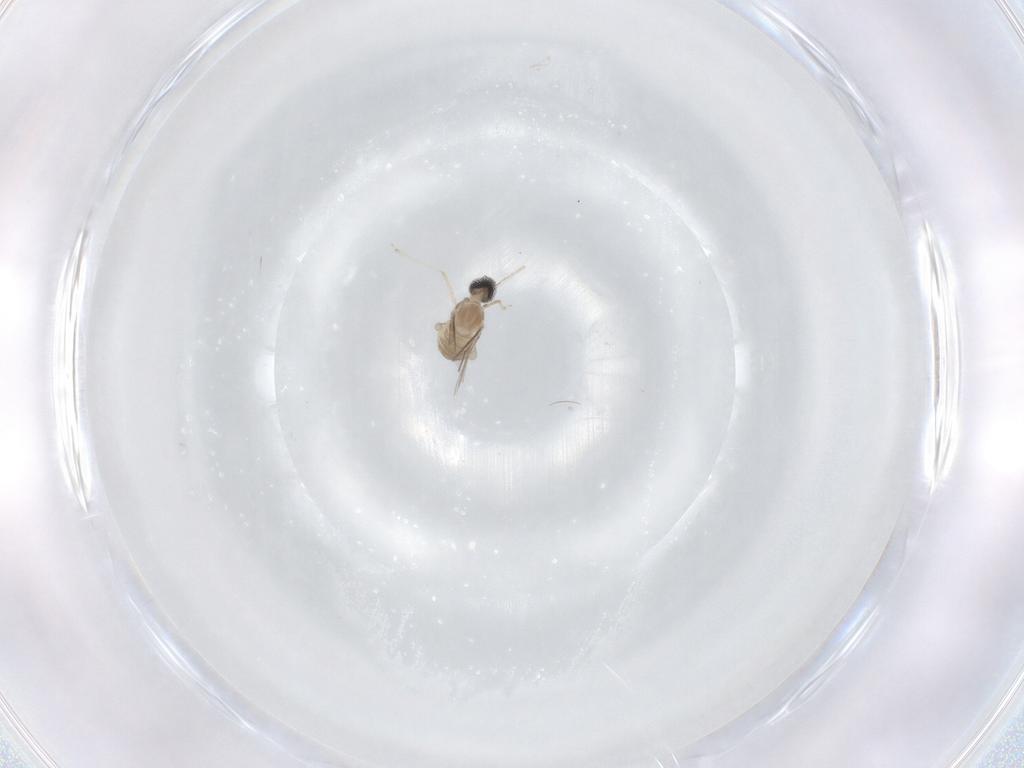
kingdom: Animalia
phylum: Arthropoda
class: Insecta
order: Diptera
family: Cecidomyiidae
